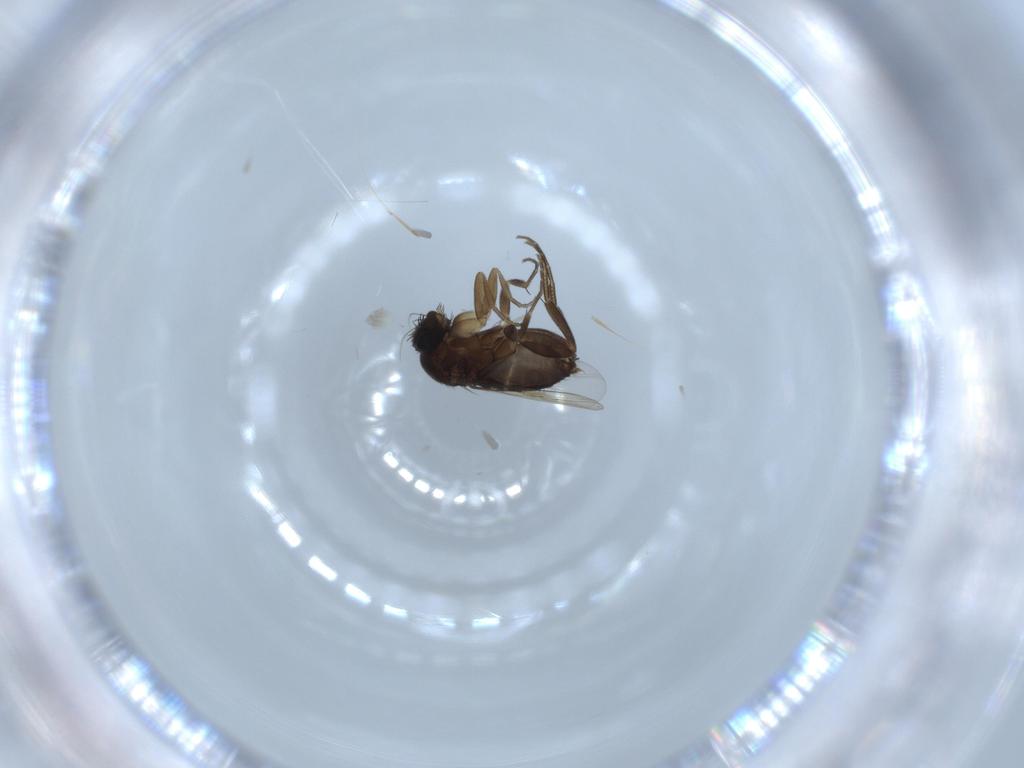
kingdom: Animalia
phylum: Arthropoda
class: Insecta
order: Diptera
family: Phoridae
